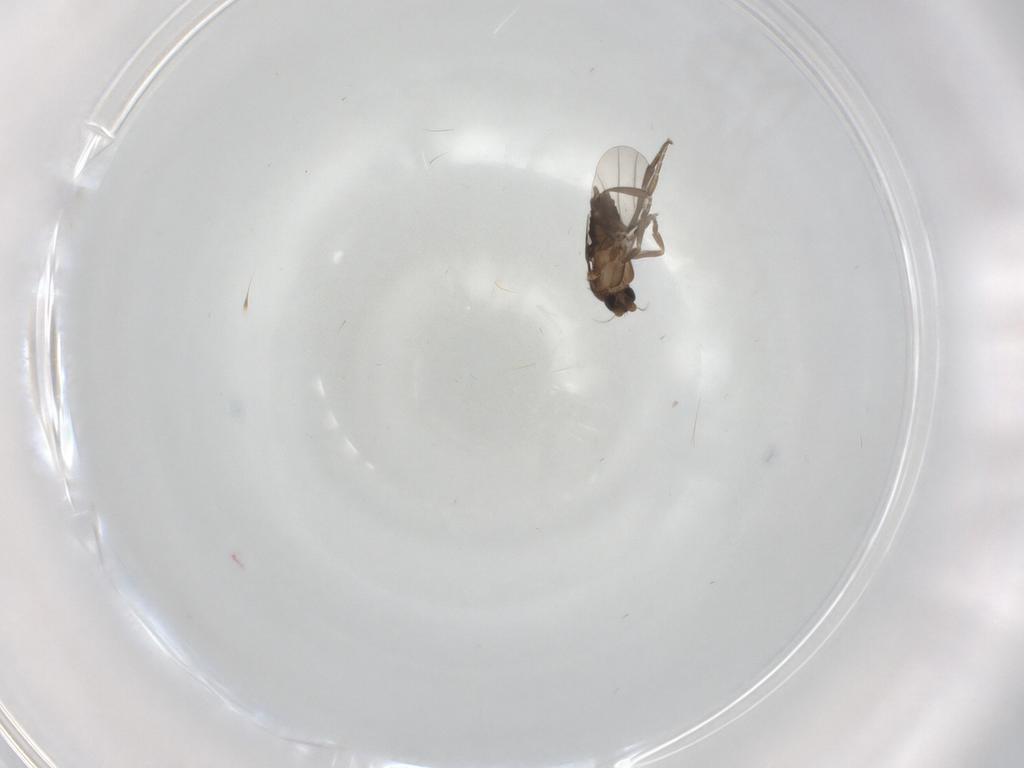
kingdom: Animalia
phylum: Arthropoda
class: Insecta
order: Diptera
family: Phoridae
